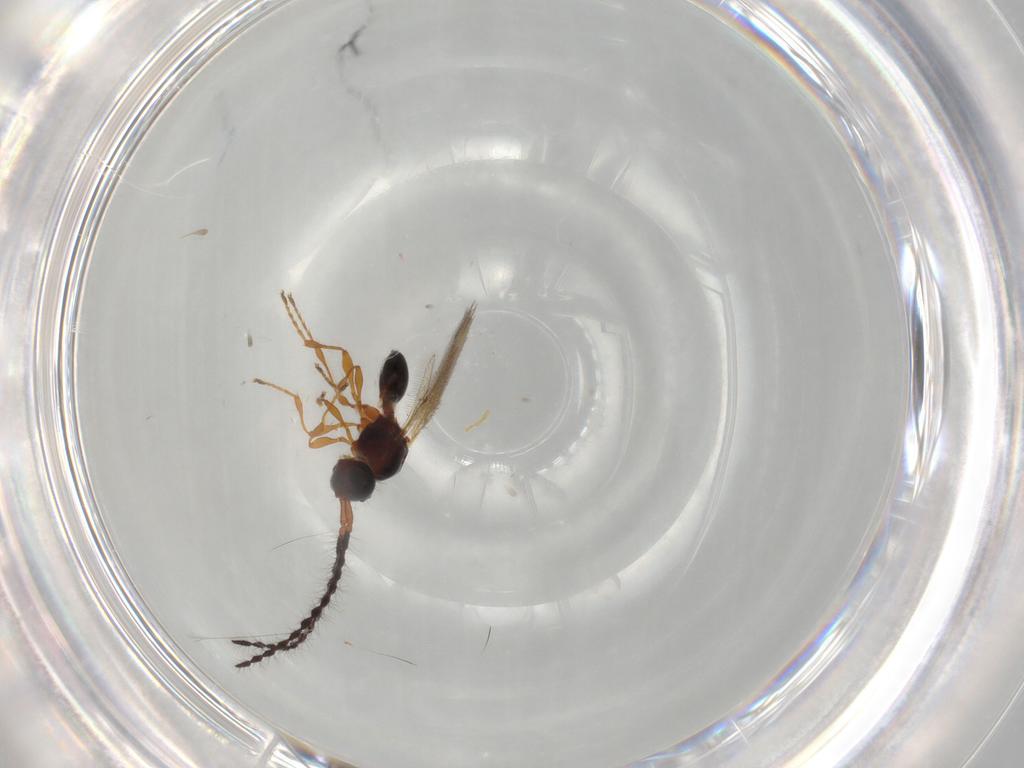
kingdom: Animalia
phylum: Arthropoda
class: Insecta
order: Hymenoptera
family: Diapriidae
